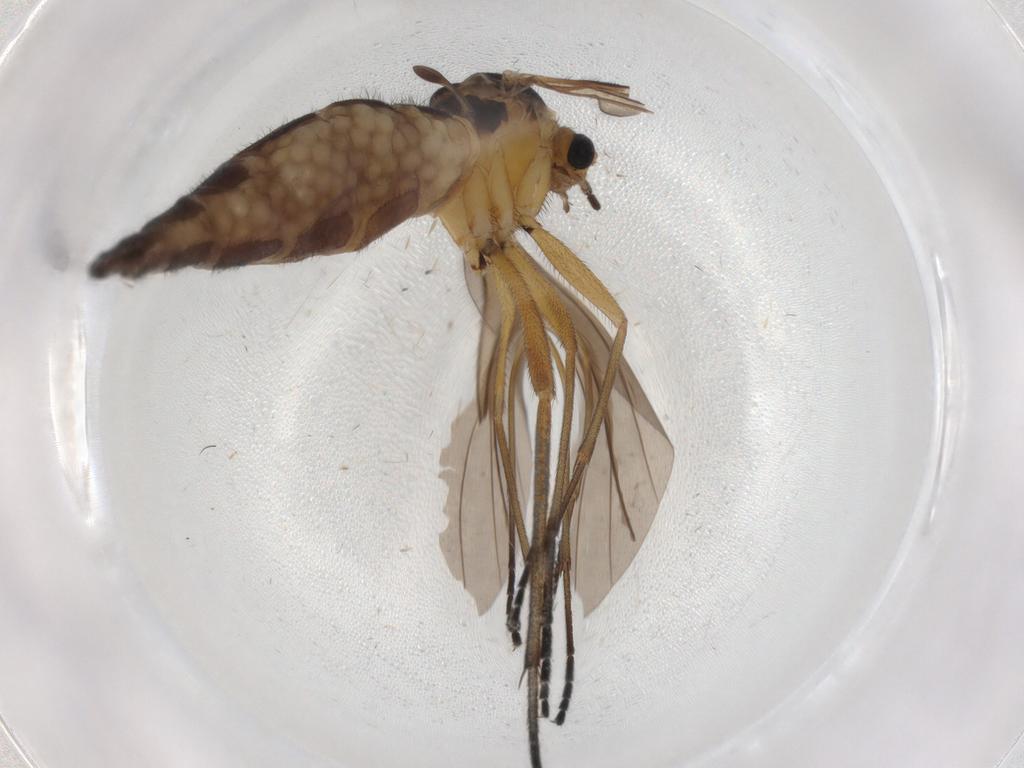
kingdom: Animalia
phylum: Arthropoda
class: Insecta
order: Diptera
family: Sciaridae
